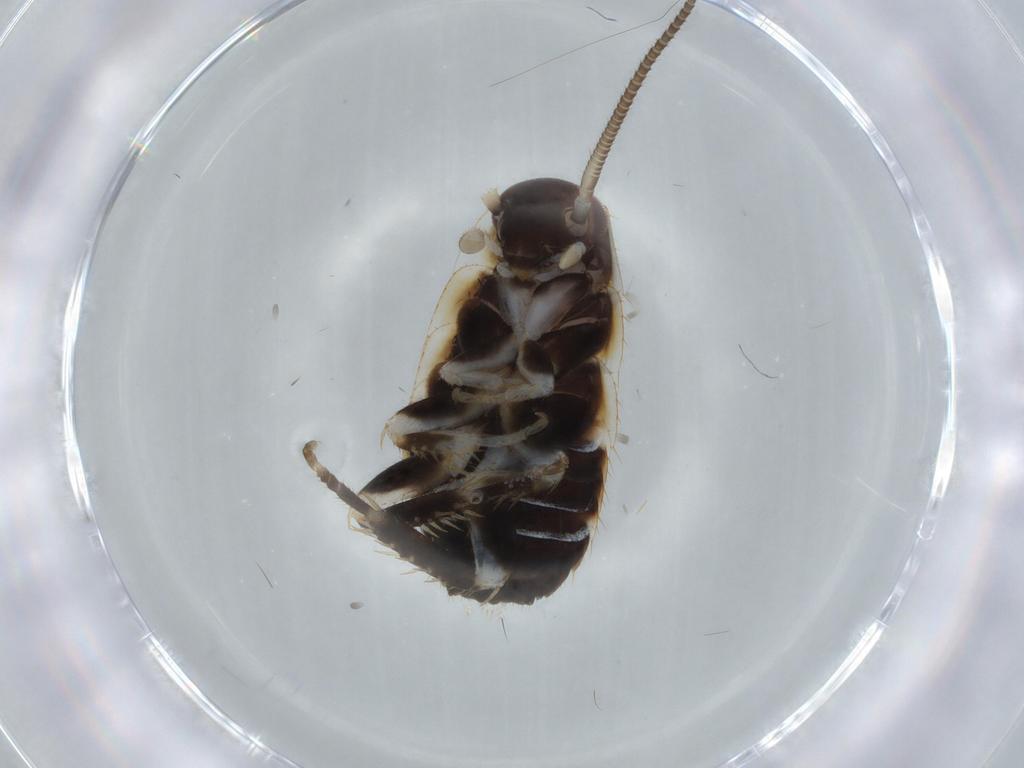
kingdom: Animalia
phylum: Arthropoda
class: Insecta
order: Blattodea
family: Ectobiidae
